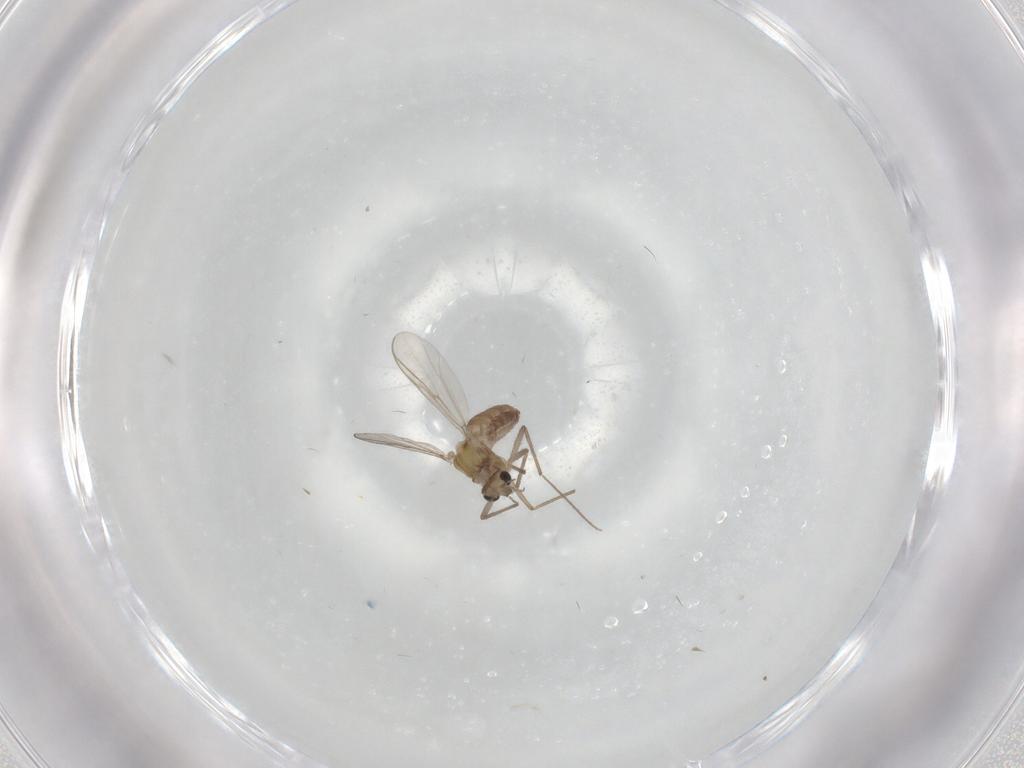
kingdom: Animalia
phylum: Arthropoda
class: Insecta
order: Diptera
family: Chironomidae
